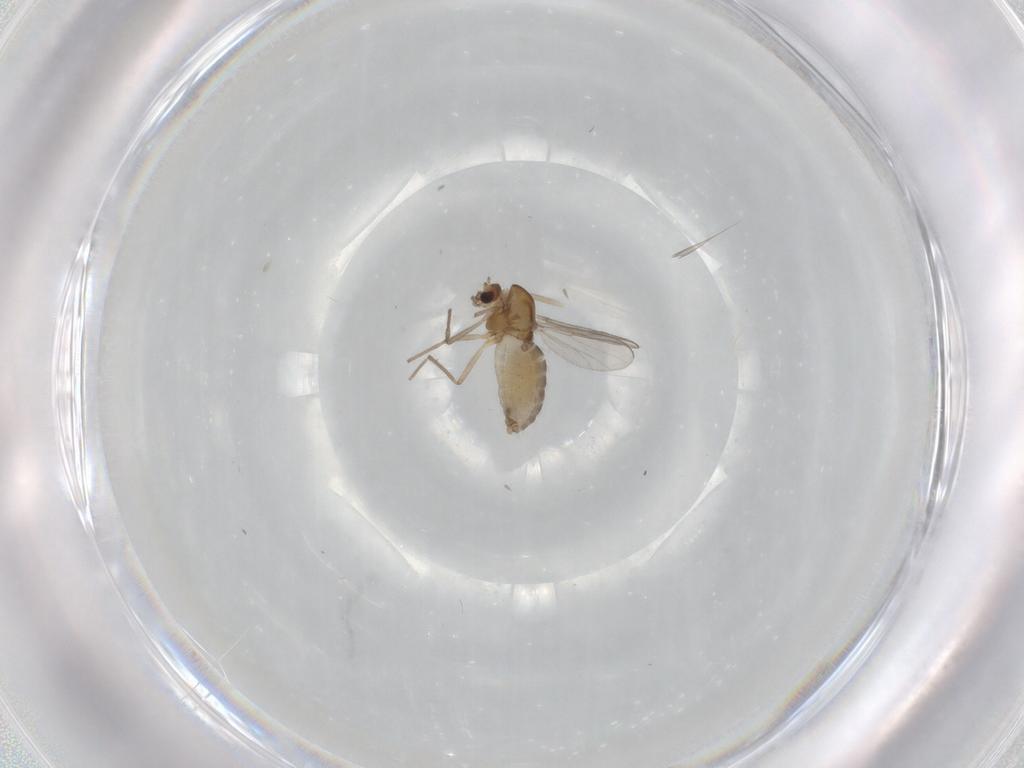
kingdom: Animalia
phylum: Arthropoda
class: Insecta
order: Diptera
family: Chironomidae
